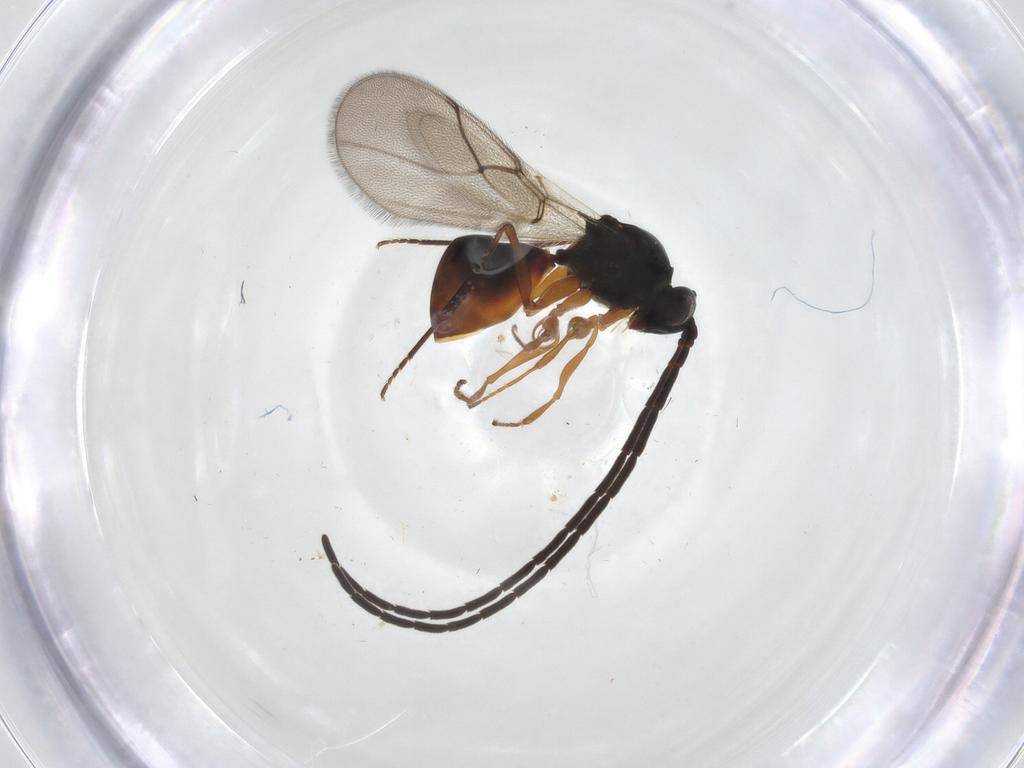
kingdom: Animalia
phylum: Arthropoda
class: Insecta
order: Hymenoptera
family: Figitidae
